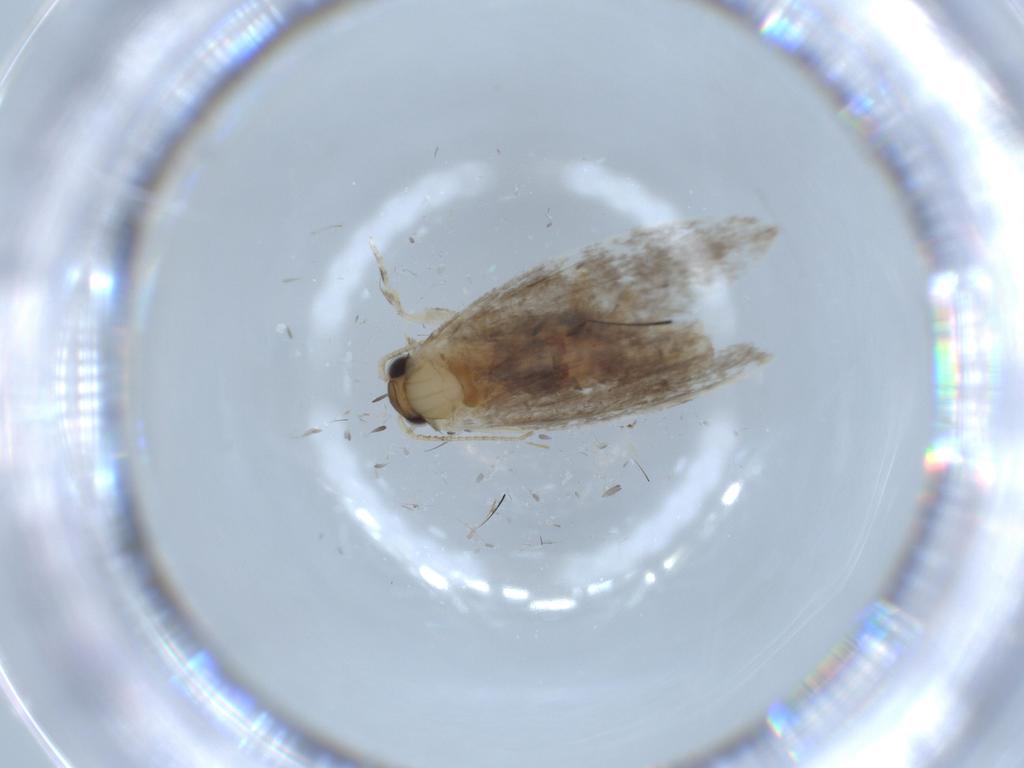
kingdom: Animalia
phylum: Arthropoda
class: Insecta
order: Lepidoptera
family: Tineidae
